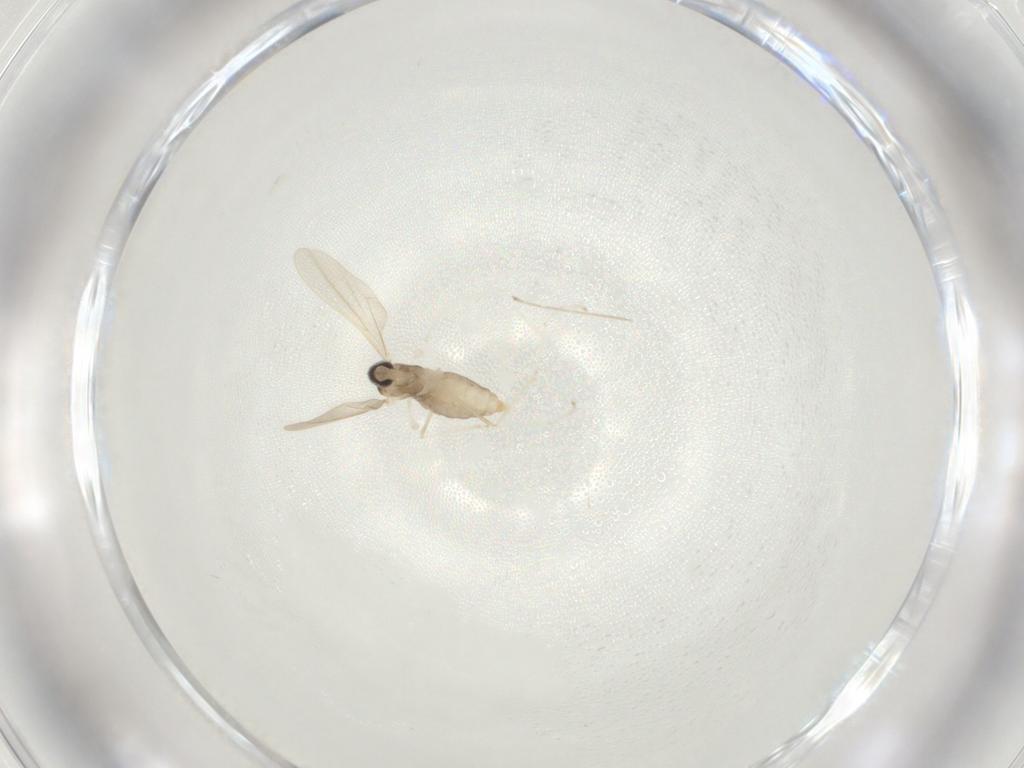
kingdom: Animalia
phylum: Arthropoda
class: Insecta
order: Diptera
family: Cecidomyiidae
